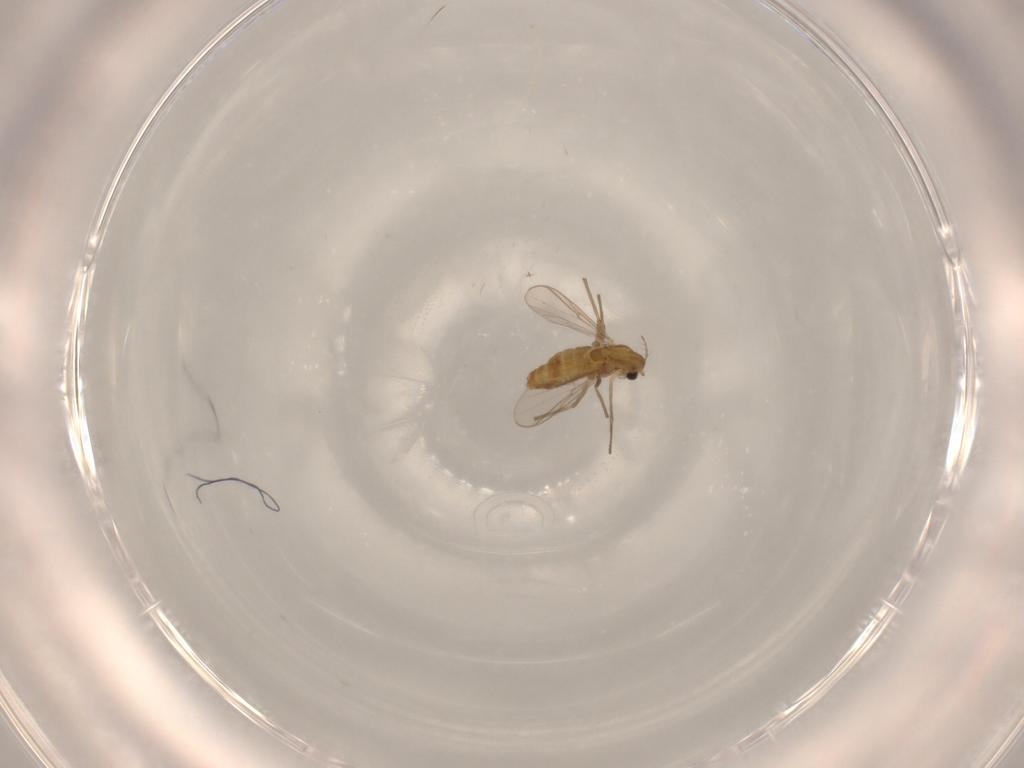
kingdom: Animalia
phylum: Arthropoda
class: Insecta
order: Diptera
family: Chironomidae
